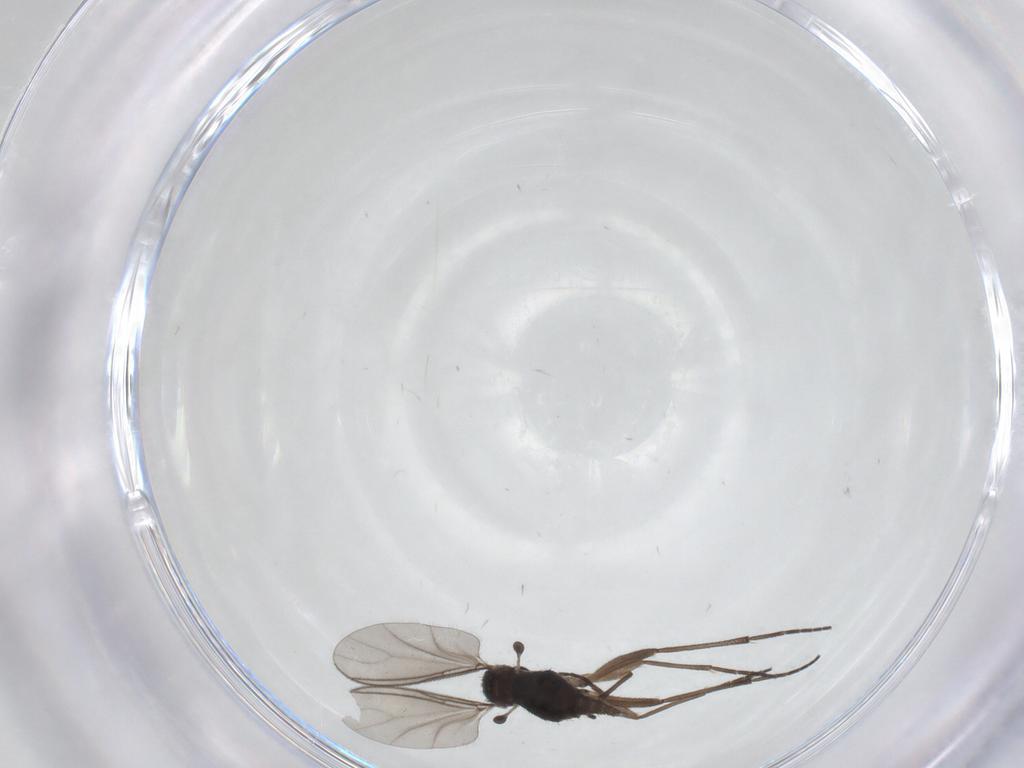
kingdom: Animalia
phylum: Arthropoda
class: Insecta
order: Diptera
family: Sciaridae
